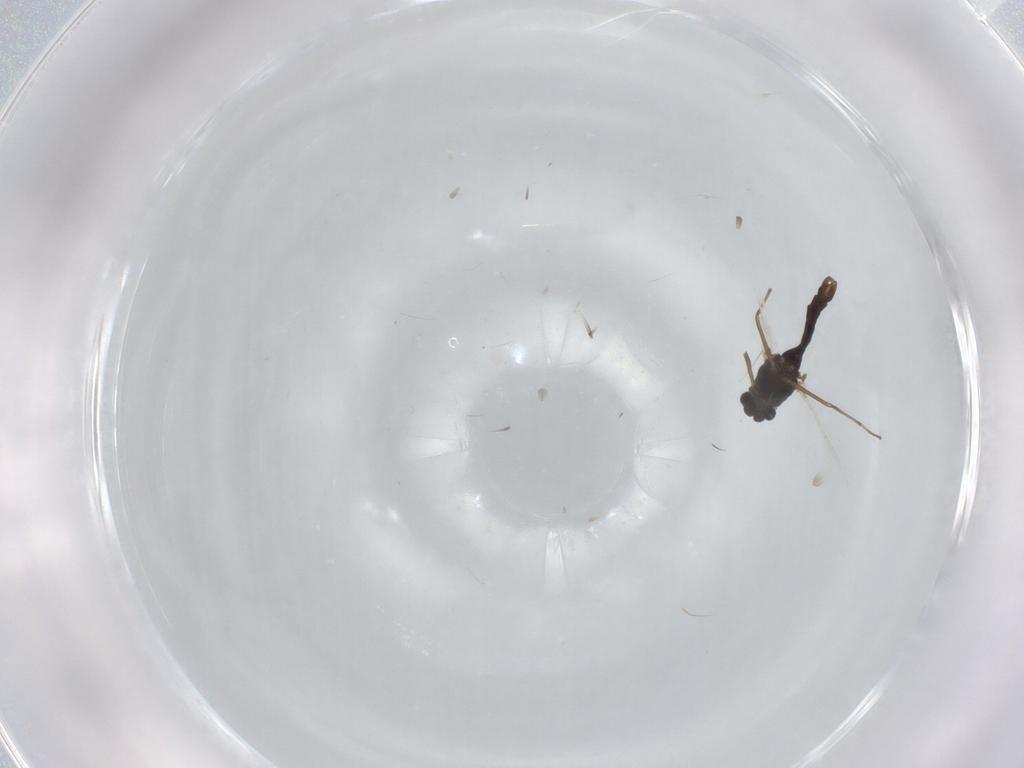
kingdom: Animalia
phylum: Arthropoda
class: Insecta
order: Diptera
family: Chironomidae
